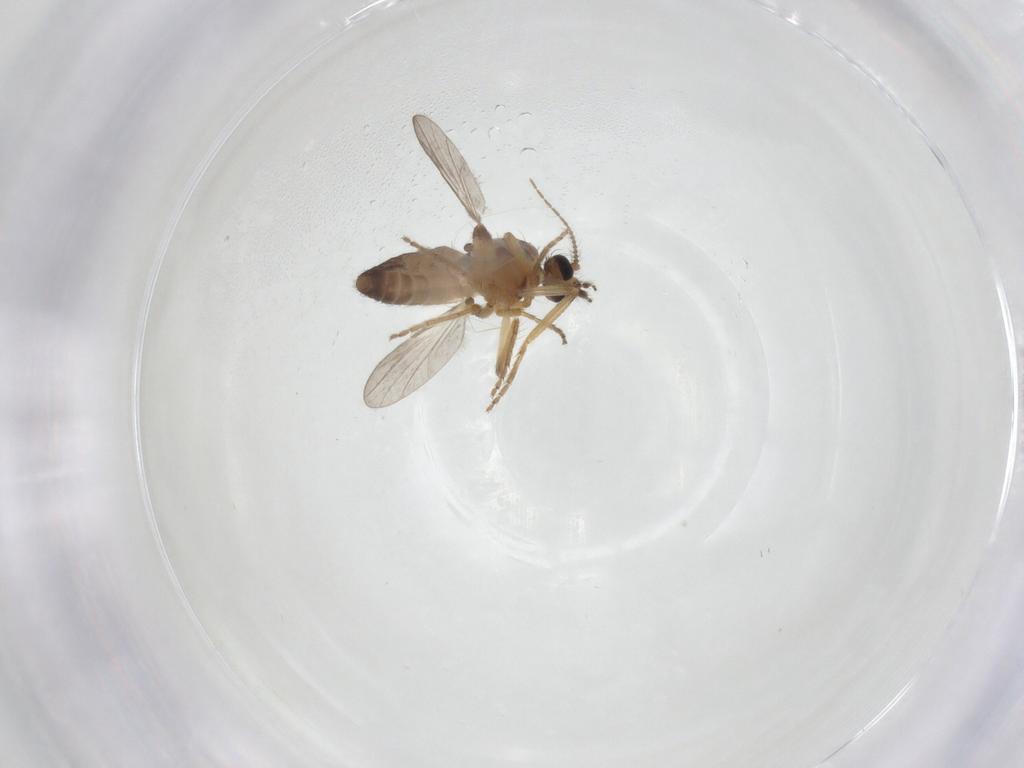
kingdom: Animalia
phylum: Arthropoda
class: Insecta
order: Diptera
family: Ceratopogonidae
